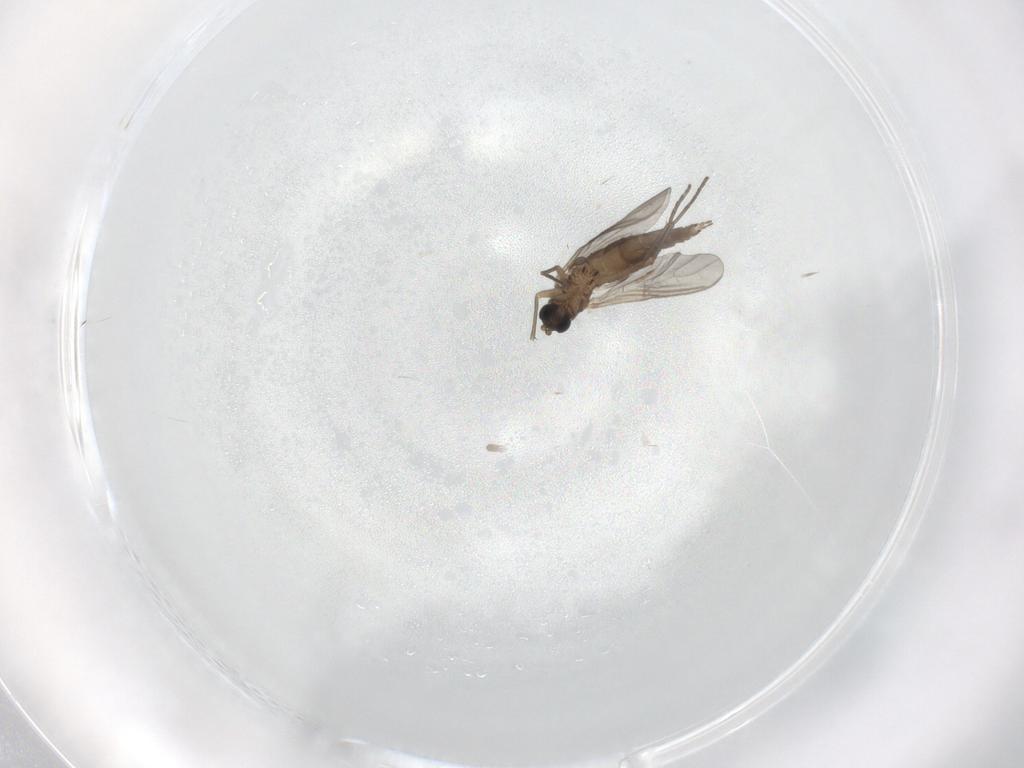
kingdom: Animalia
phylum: Arthropoda
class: Insecta
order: Diptera
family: Sciaridae
